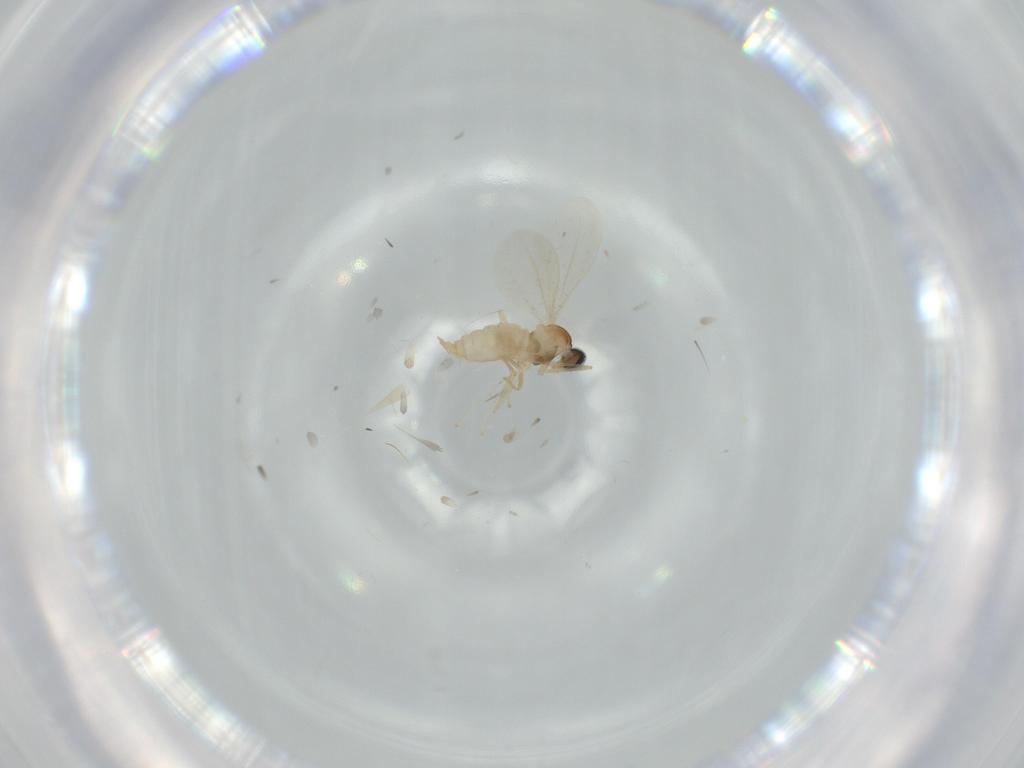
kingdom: Animalia
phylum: Arthropoda
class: Insecta
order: Diptera
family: Cecidomyiidae
